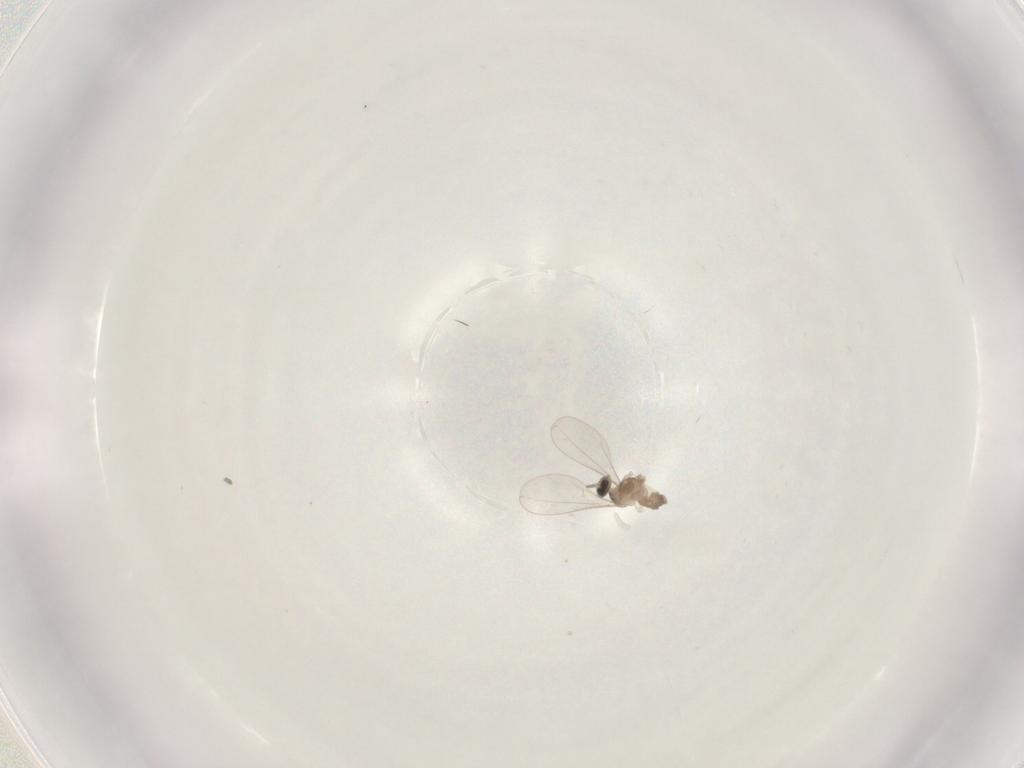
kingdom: Animalia
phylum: Arthropoda
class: Insecta
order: Diptera
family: Cecidomyiidae
